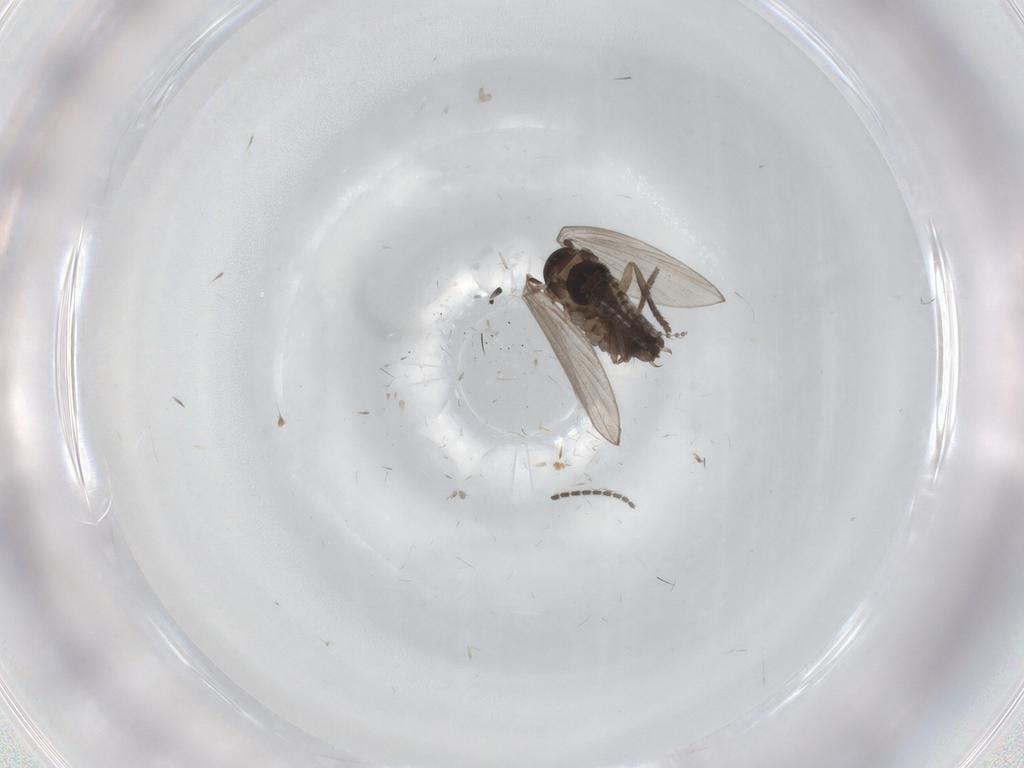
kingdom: Animalia
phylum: Arthropoda
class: Insecta
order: Diptera
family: Psychodidae
